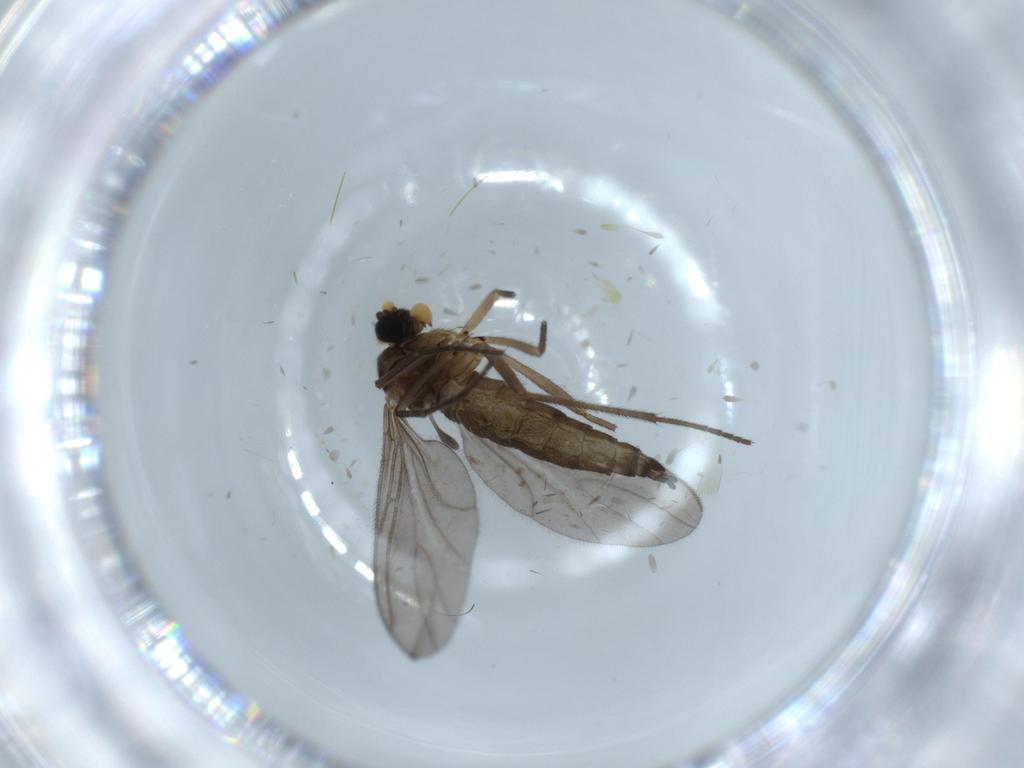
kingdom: Animalia
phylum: Arthropoda
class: Insecta
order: Diptera
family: Sciaridae
